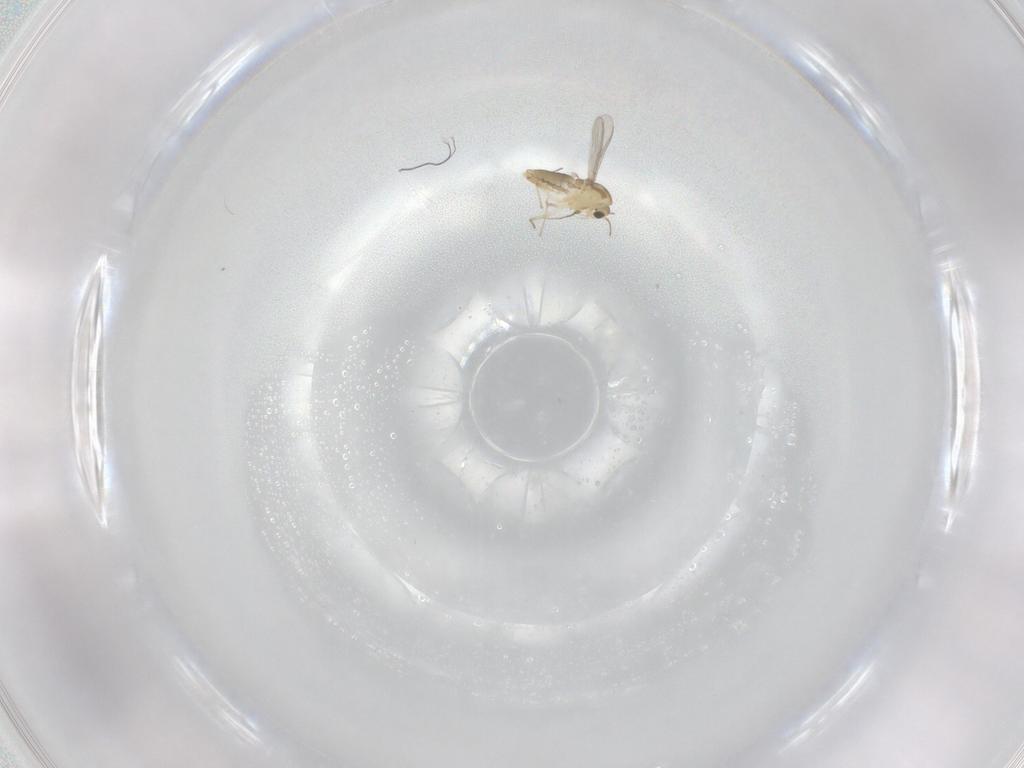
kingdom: Animalia
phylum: Arthropoda
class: Insecta
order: Diptera
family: Chironomidae
